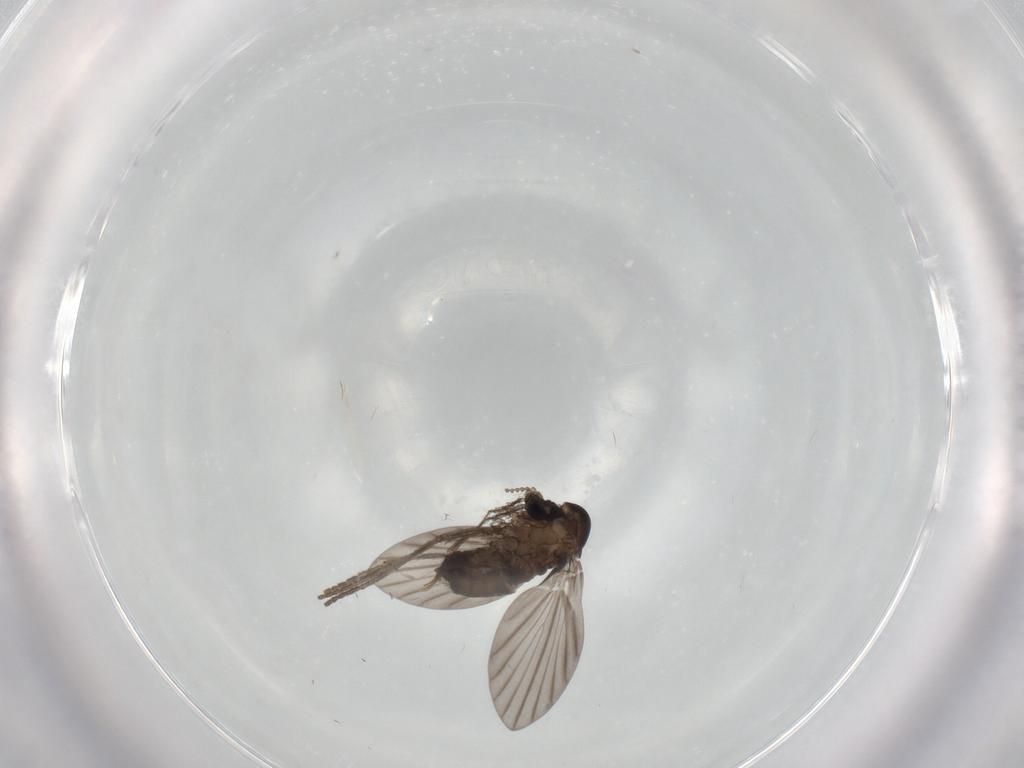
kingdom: Animalia
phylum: Arthropoda
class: Insecta
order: Diptera
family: Psychodidae
